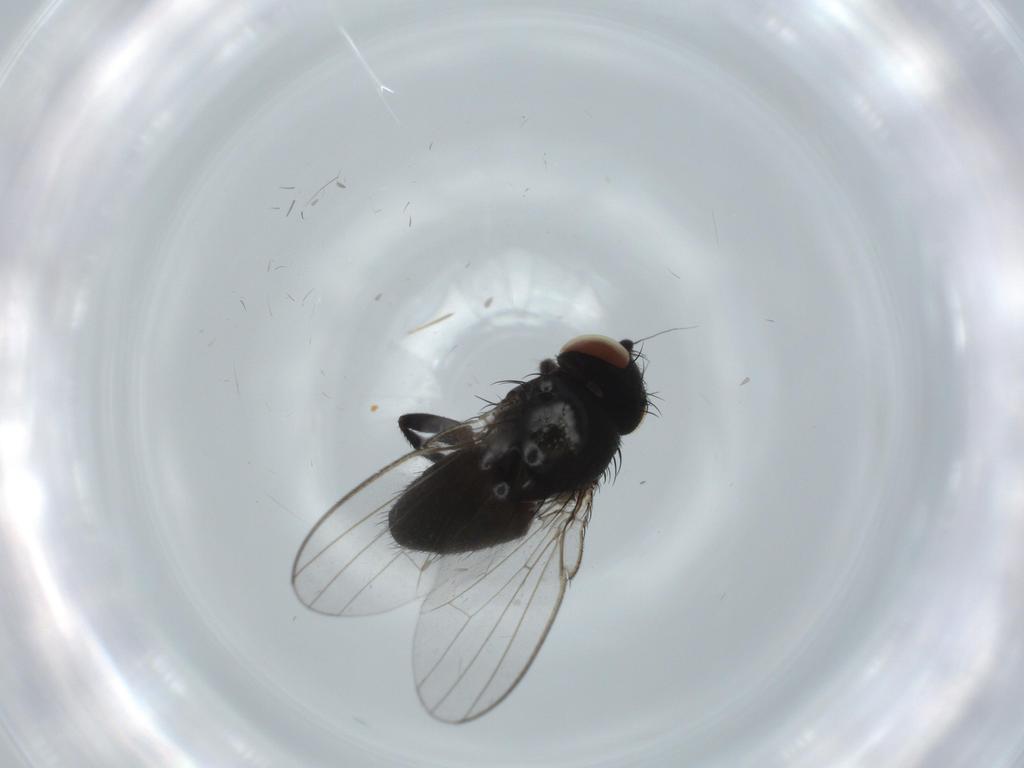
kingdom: Animalia
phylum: Arthropoda
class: Insecta
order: Diptera
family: Milichiidae
